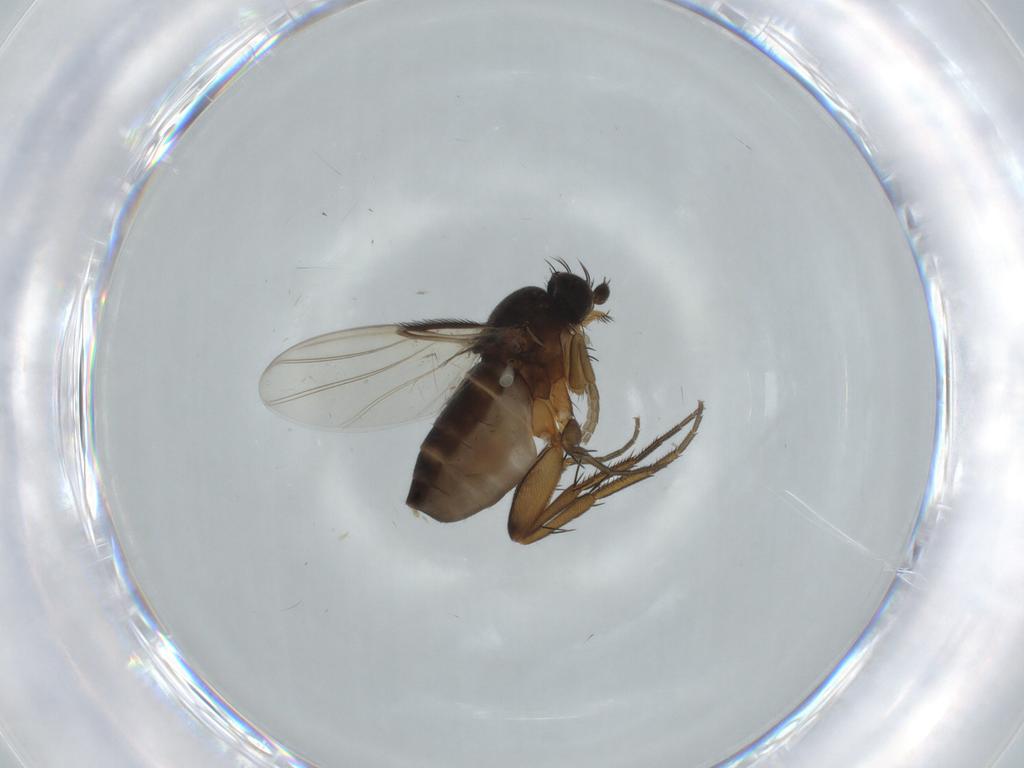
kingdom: Animalia
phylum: Arthropoda
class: Insecta
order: Diptera
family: Phoridae
